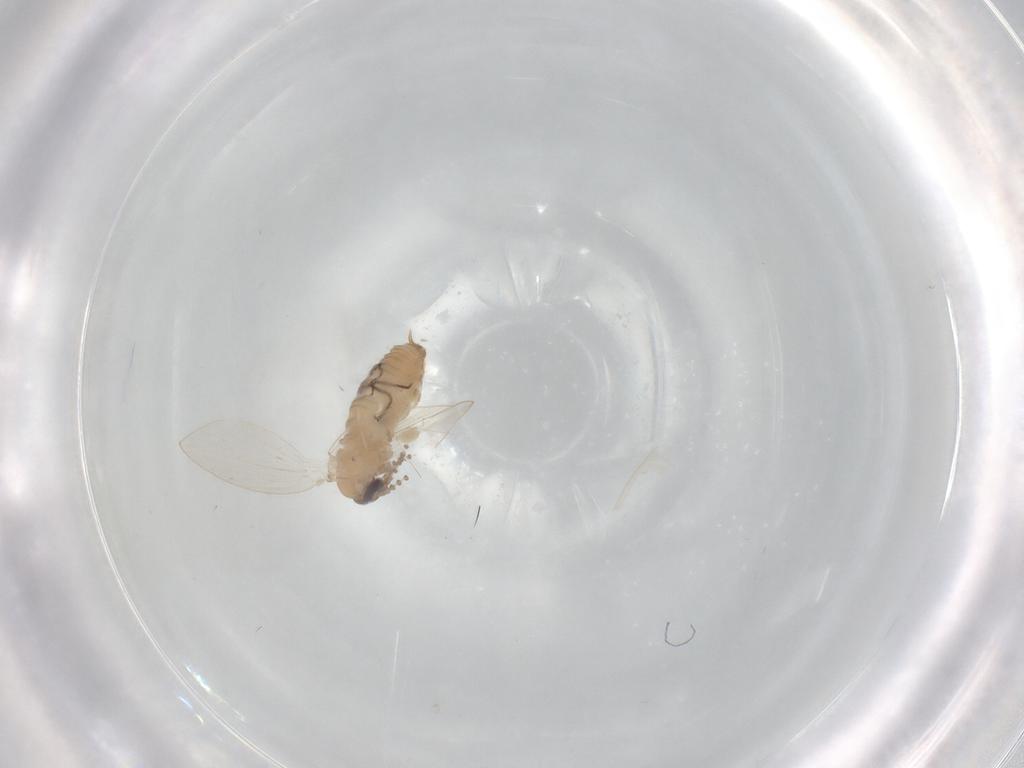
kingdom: Animalia
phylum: Arthropoda
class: Insecta
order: Diptera
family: Psychodidae
